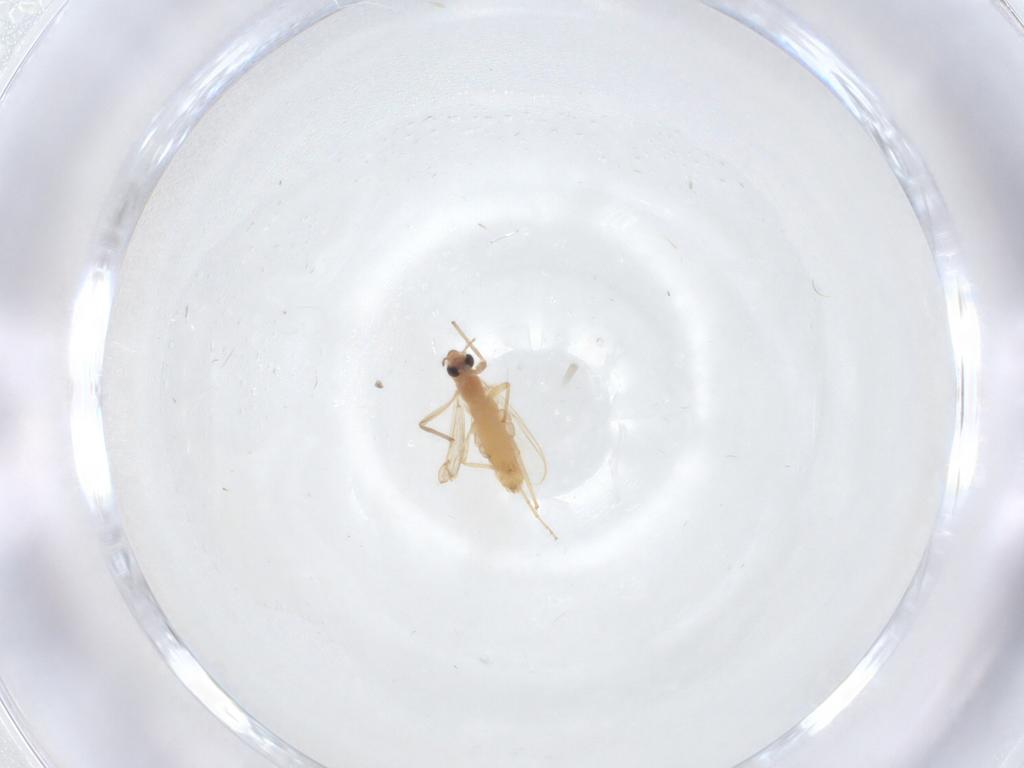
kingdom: Animalia
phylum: Arthropoda
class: Insecta
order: Diptera
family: Chironomidae
